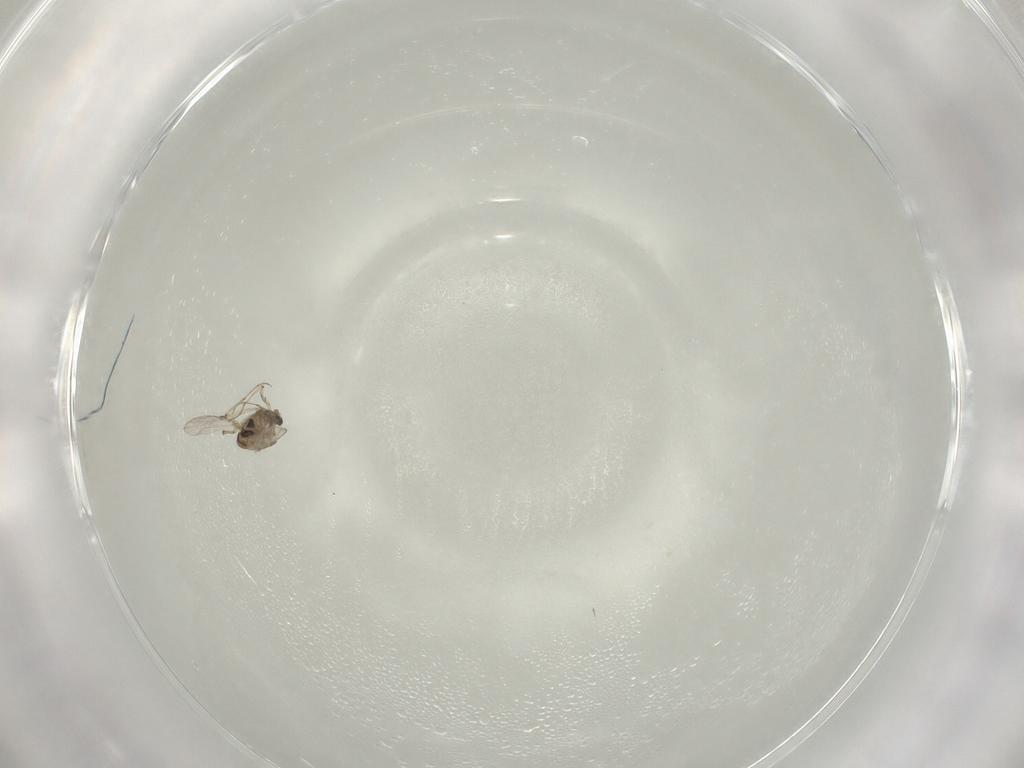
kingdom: Animalia
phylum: Arthropoda
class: Insecta
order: Diptera
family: Chironomidae
